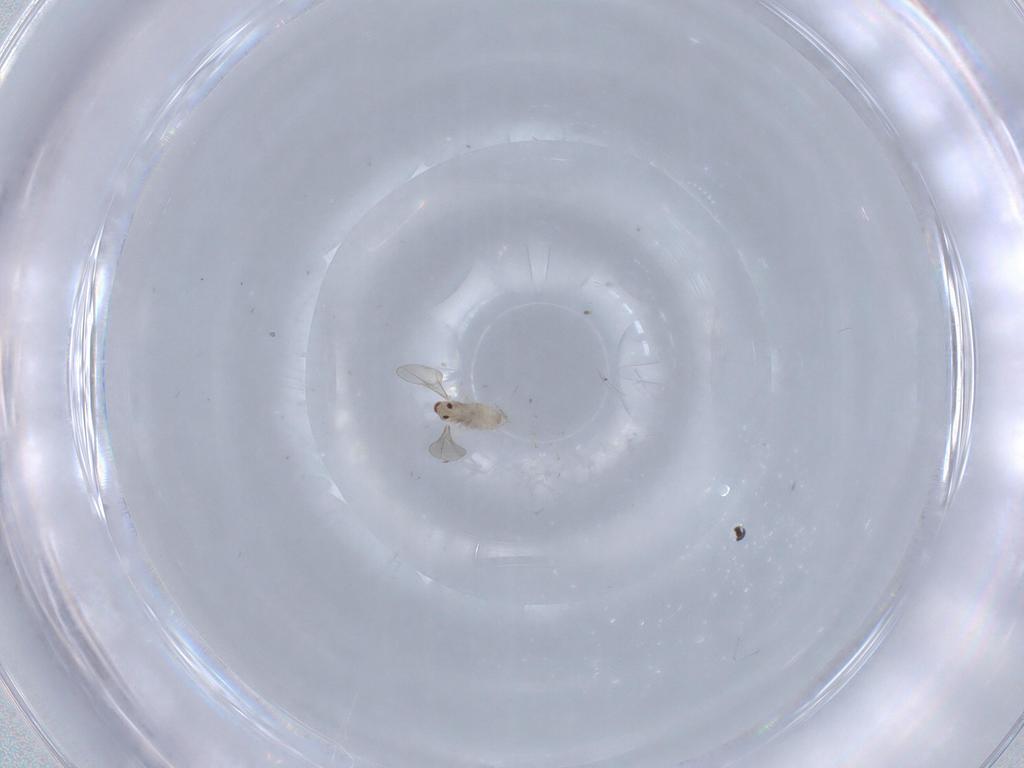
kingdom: Animalia
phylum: Arthropoda
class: Insecta
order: Diptera
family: Cecidomyiidae
